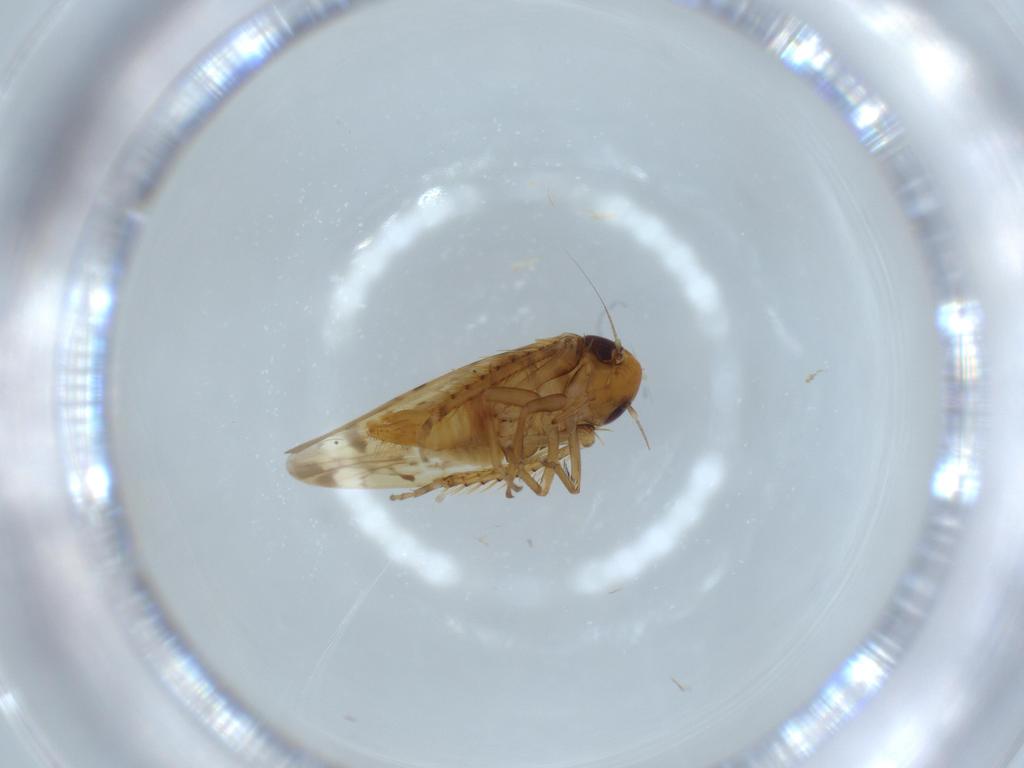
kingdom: Animalia
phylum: Arthropoda
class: Insecta
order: Hemiptera
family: Cicadellidae
